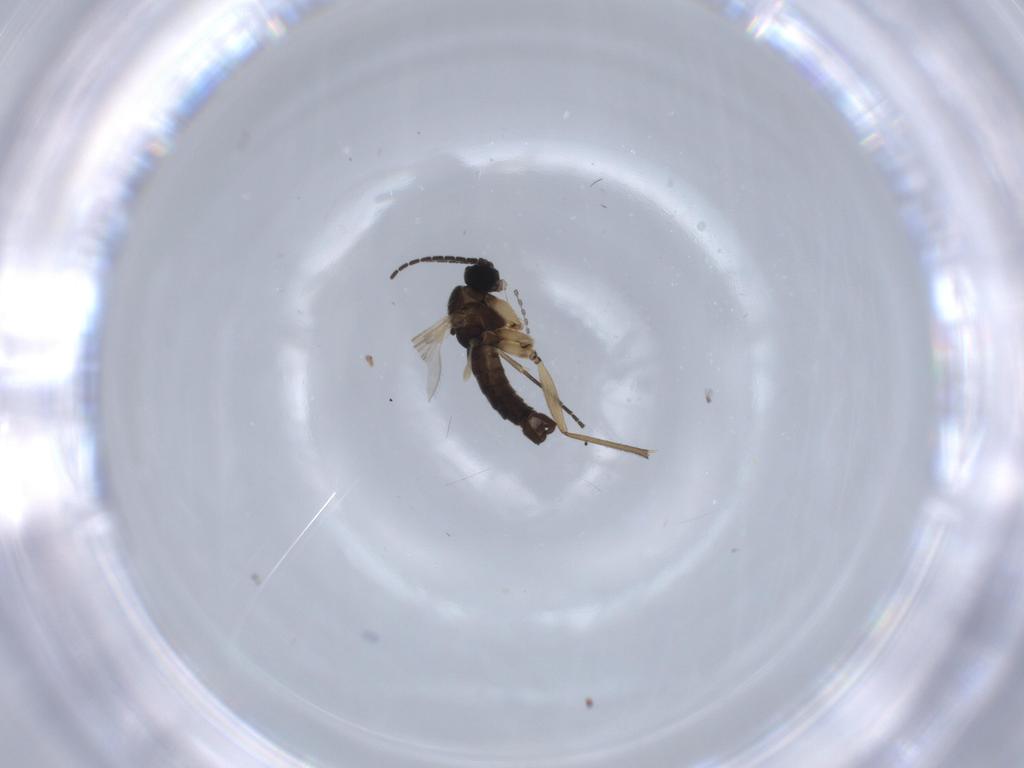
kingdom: Animalia
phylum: Arthropoda
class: Insecta
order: Diptera
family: Sciaridae
